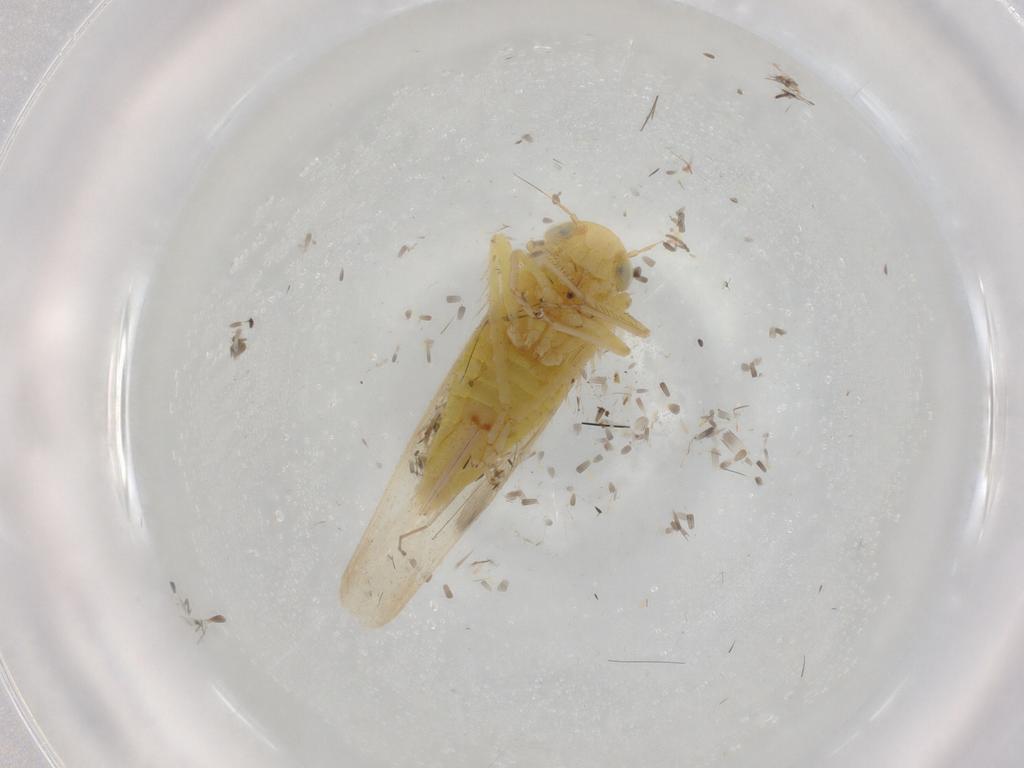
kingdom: Animalia
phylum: Arthropoda
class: Insecta
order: Hemiptera
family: Cicadellidae
